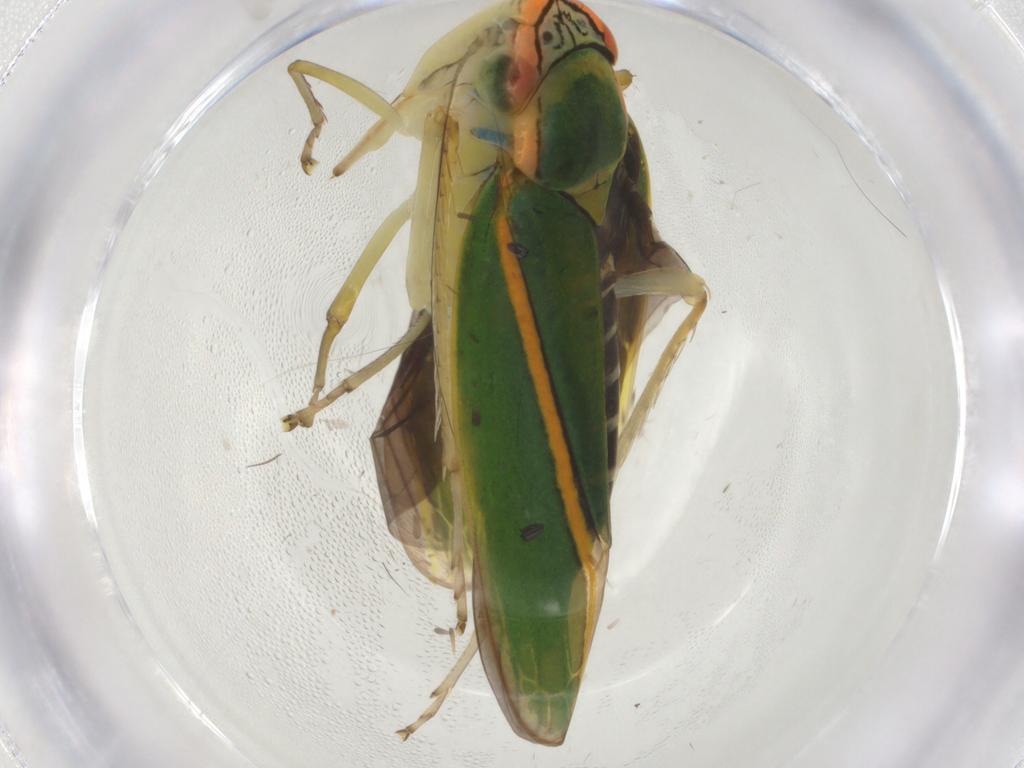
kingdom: Animalia
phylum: Arthropoda
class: Insecta
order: Hemiptera
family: Cicadellidae
